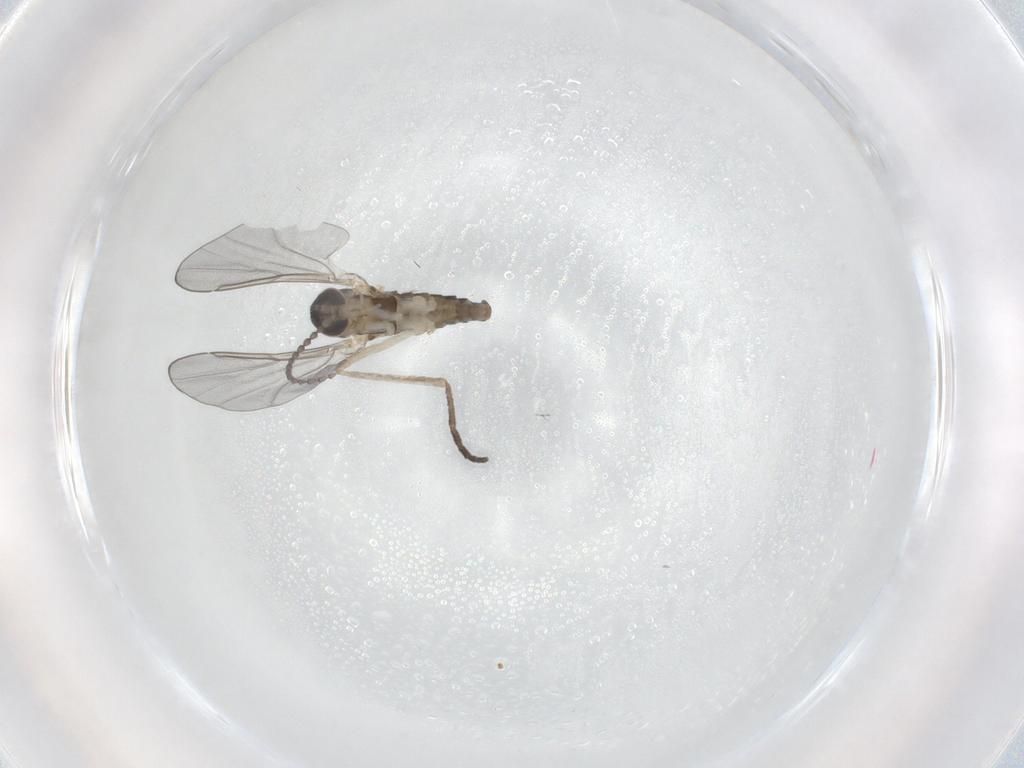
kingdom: Animalia
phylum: Arthropoda
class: Insecta
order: Diptera
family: Cecidomyiidae
